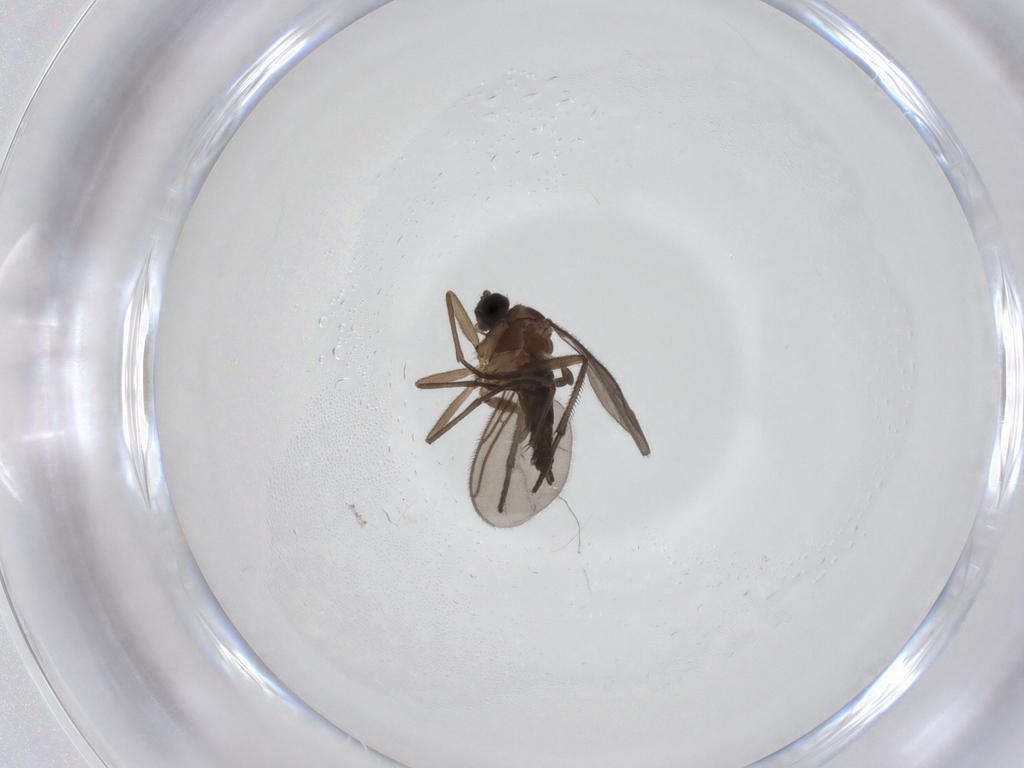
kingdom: Animalia
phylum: Arthropoda
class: Insecta
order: Diptera
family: Sciaridae
